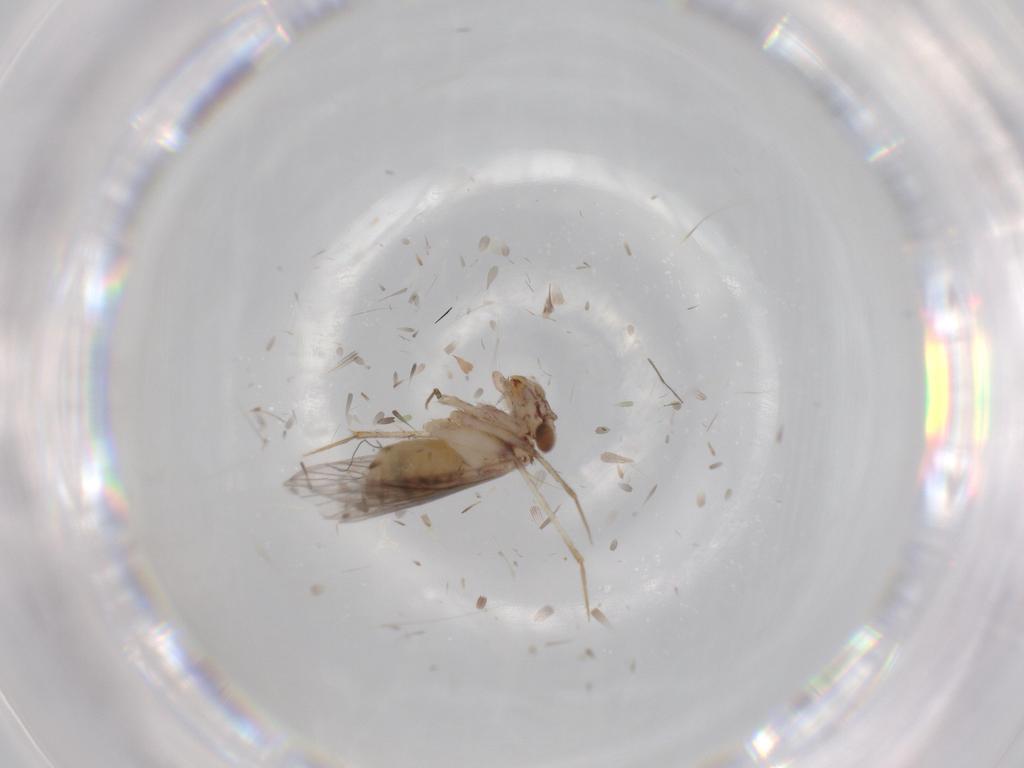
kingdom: Animalia
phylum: Arthropoda
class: Insecta
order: Psocodea
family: Lepidopsocidae
